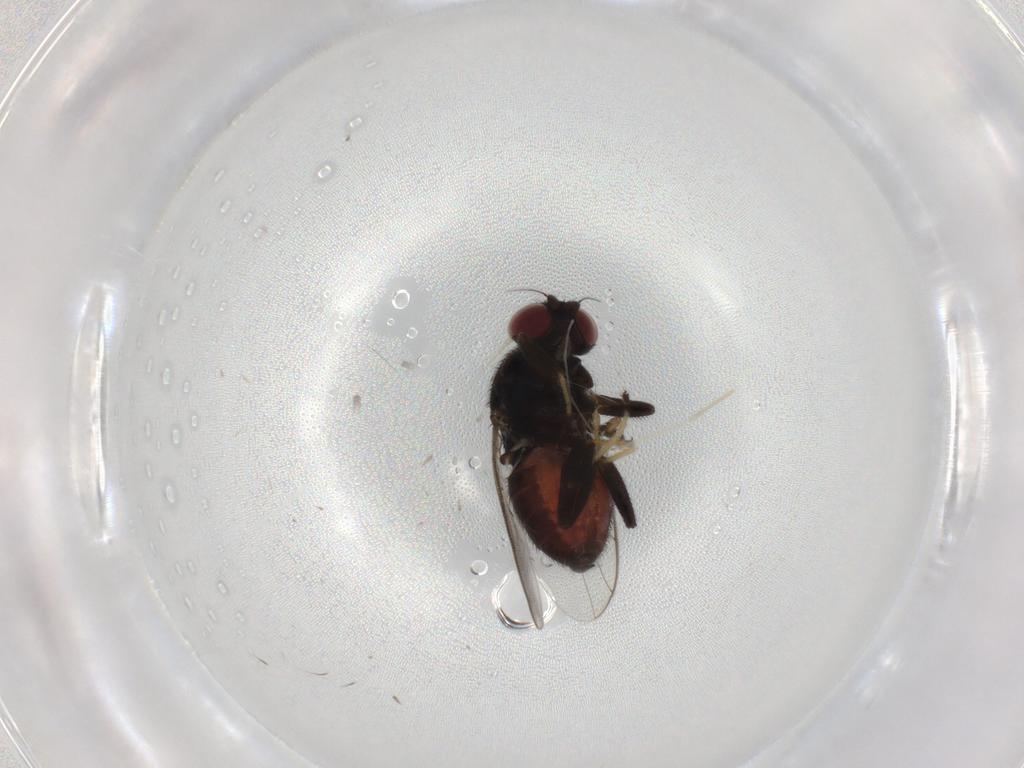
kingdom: Animalia
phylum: Arthropoda
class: Insecta
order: Diptera
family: Chloropidae
